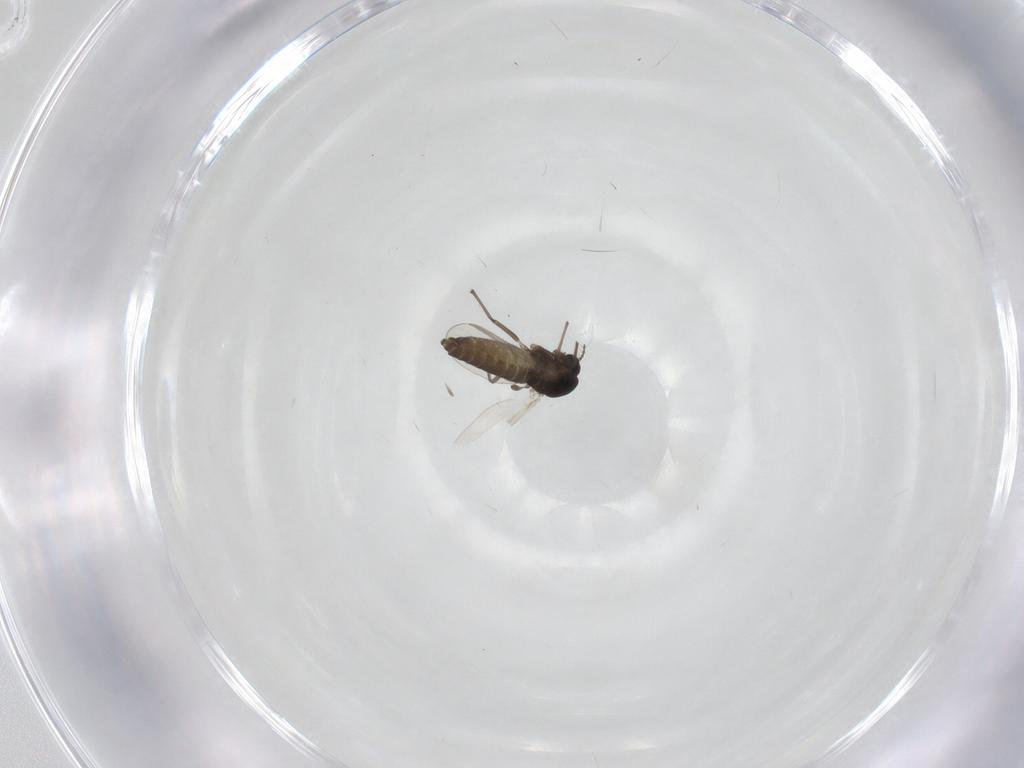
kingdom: Animalia
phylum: Arthropoda
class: Insecta
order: Diptera
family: Chironomidae
